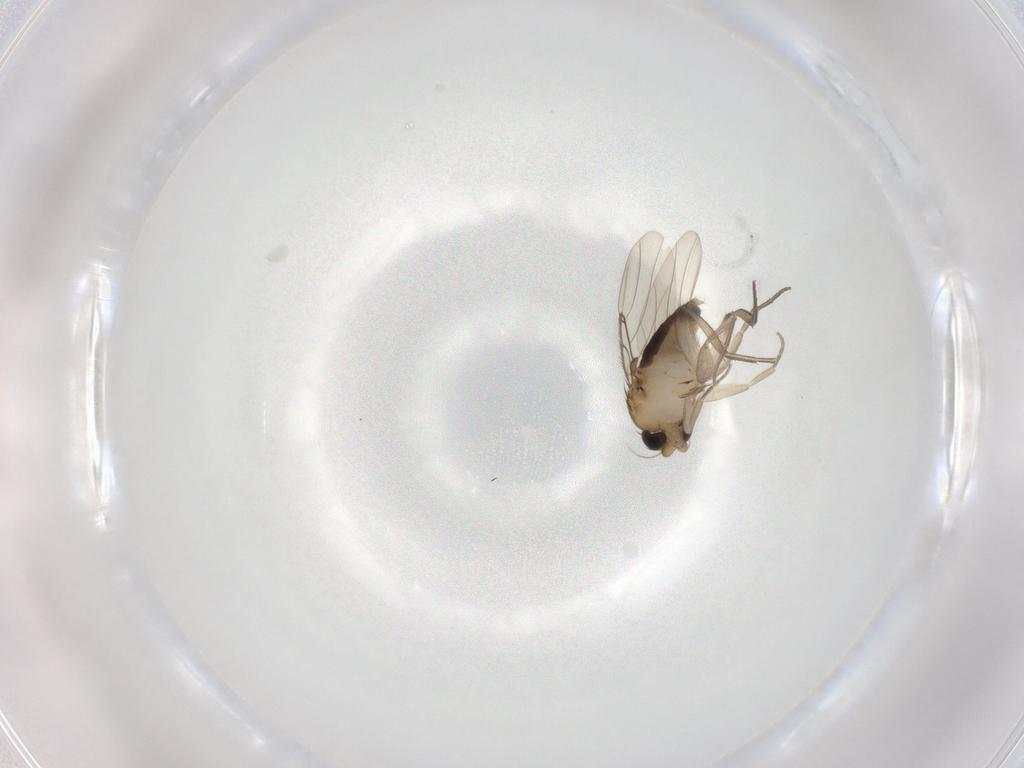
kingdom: Animalia
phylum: Arthropoda
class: Insecta
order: Diptera
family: Phoridae
